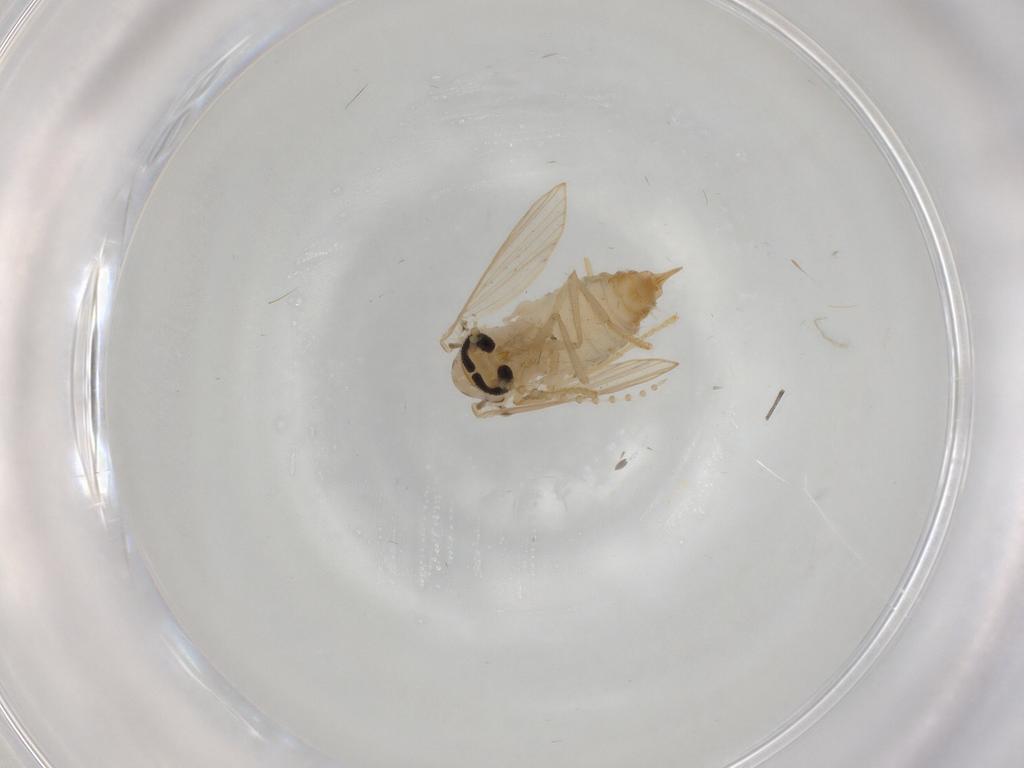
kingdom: Animalia
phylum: Arthropoda
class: Insecta
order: Diptera
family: Psychodidae
